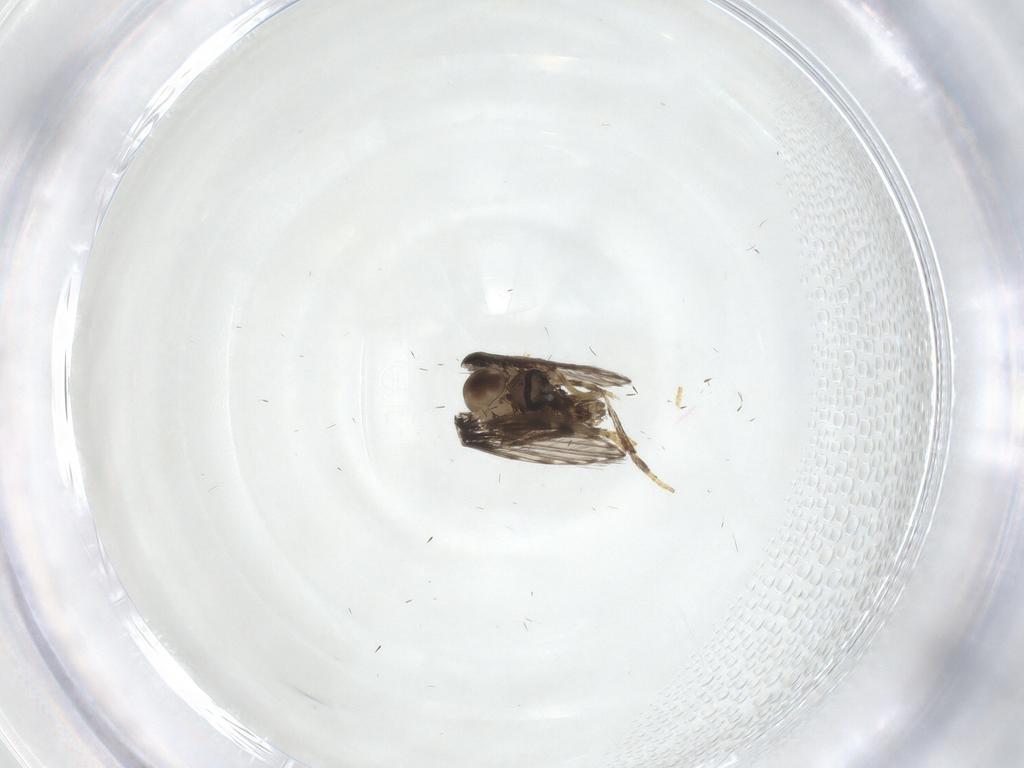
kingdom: Animalia
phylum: Arthropoda
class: Insecta
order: Diptera
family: Sciaridae
